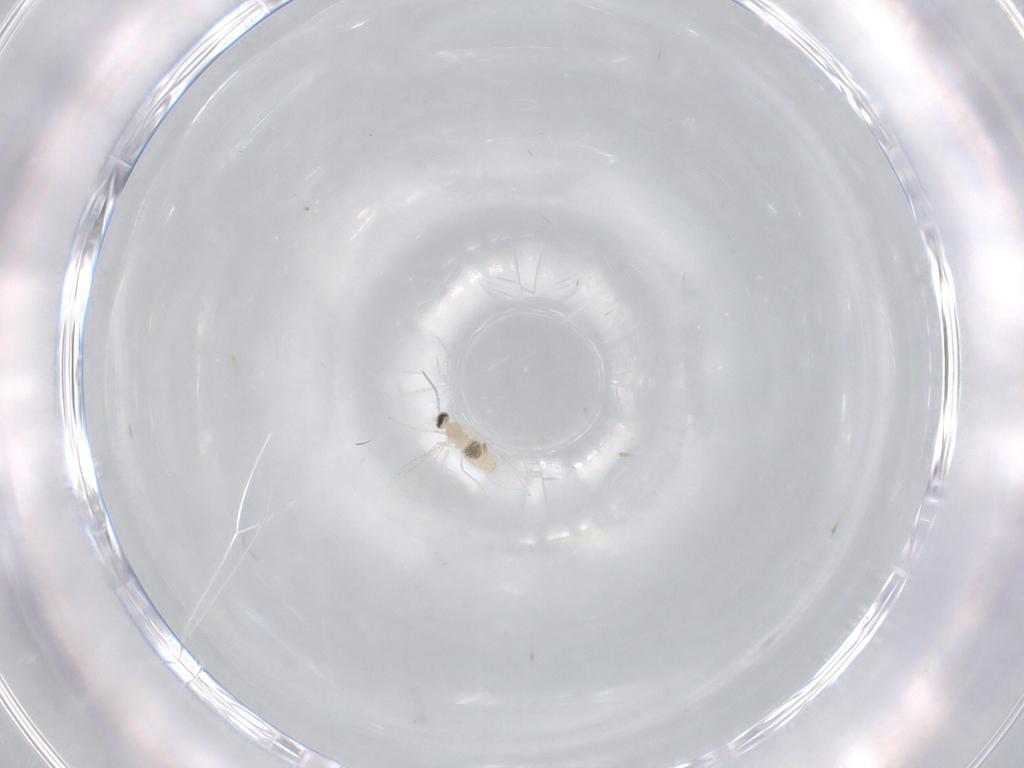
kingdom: Animalia
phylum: Arthropoda
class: Insecta
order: Diptera
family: Cecidomyiidae
